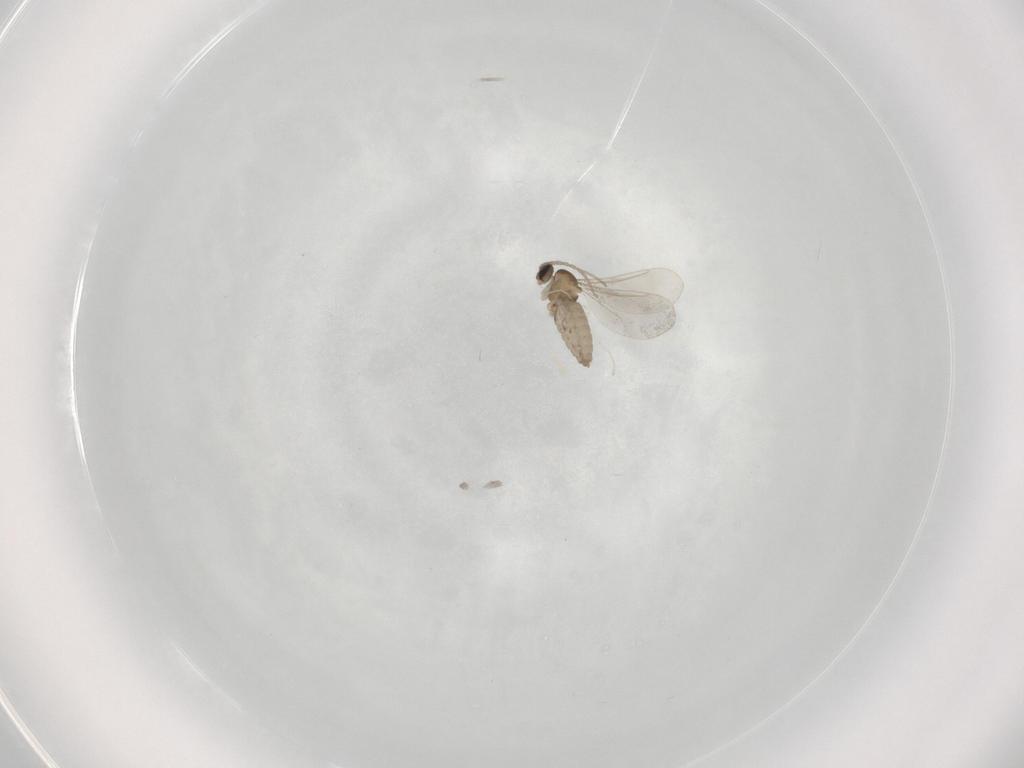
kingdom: Animalia
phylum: Arthropoda
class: Insecta
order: Diptera
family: Cecidomyiidae
